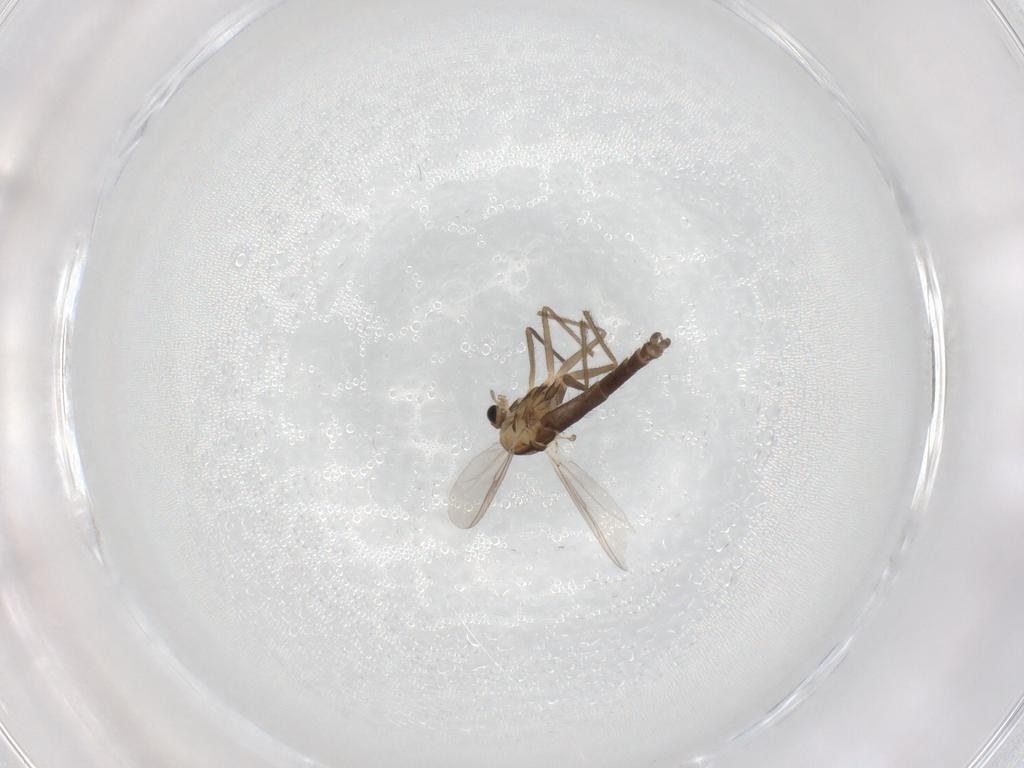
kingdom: Animalia
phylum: Arthropoda
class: Insecta
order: Diptera
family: Chironomidae
